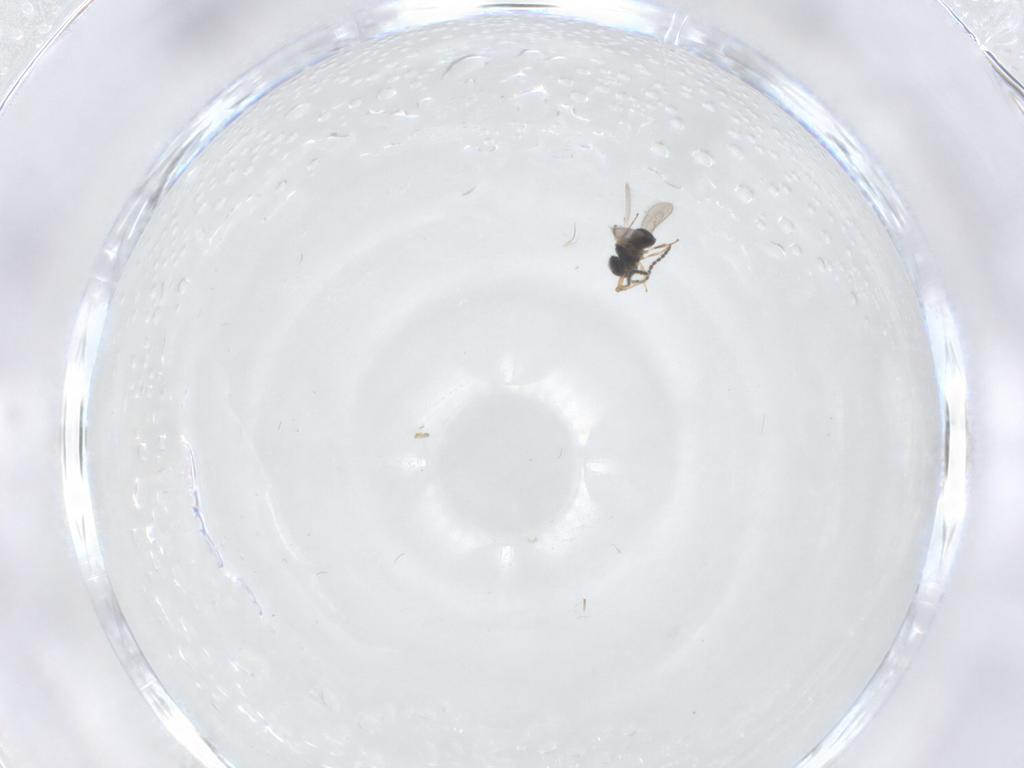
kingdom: Animalia
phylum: Arthropoda
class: Insecta
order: Hymenoptera
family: Scelionidae
